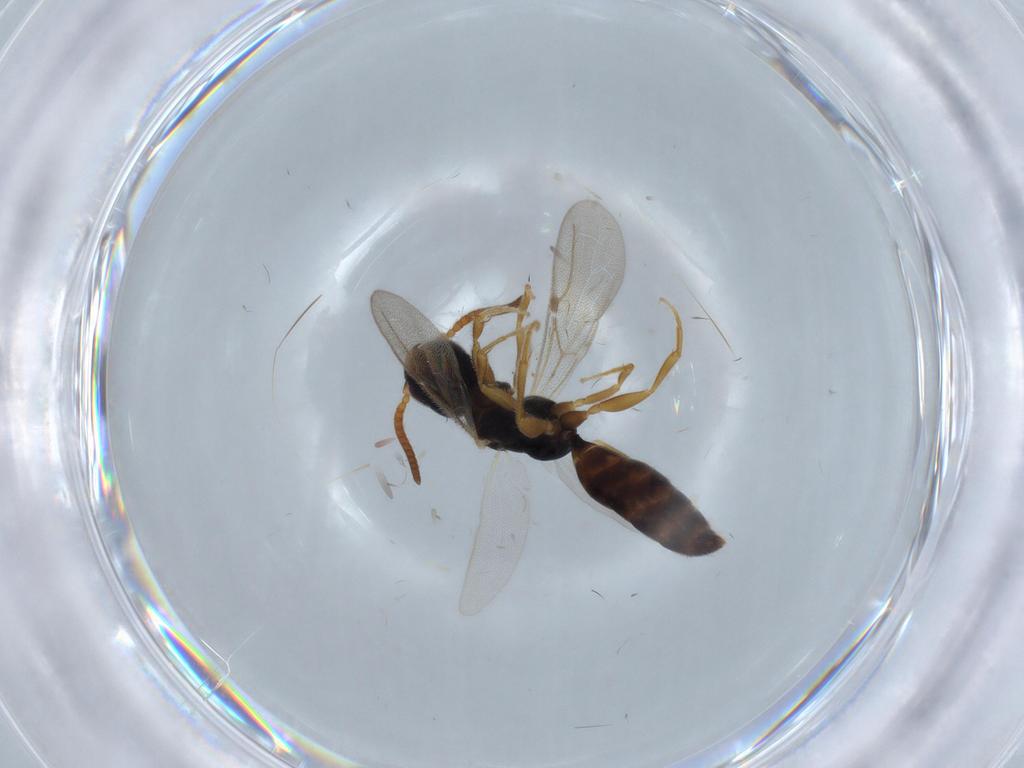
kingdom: Animalia
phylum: Arthropoda
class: Insecta
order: Hymenoptera
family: Bethylidae
